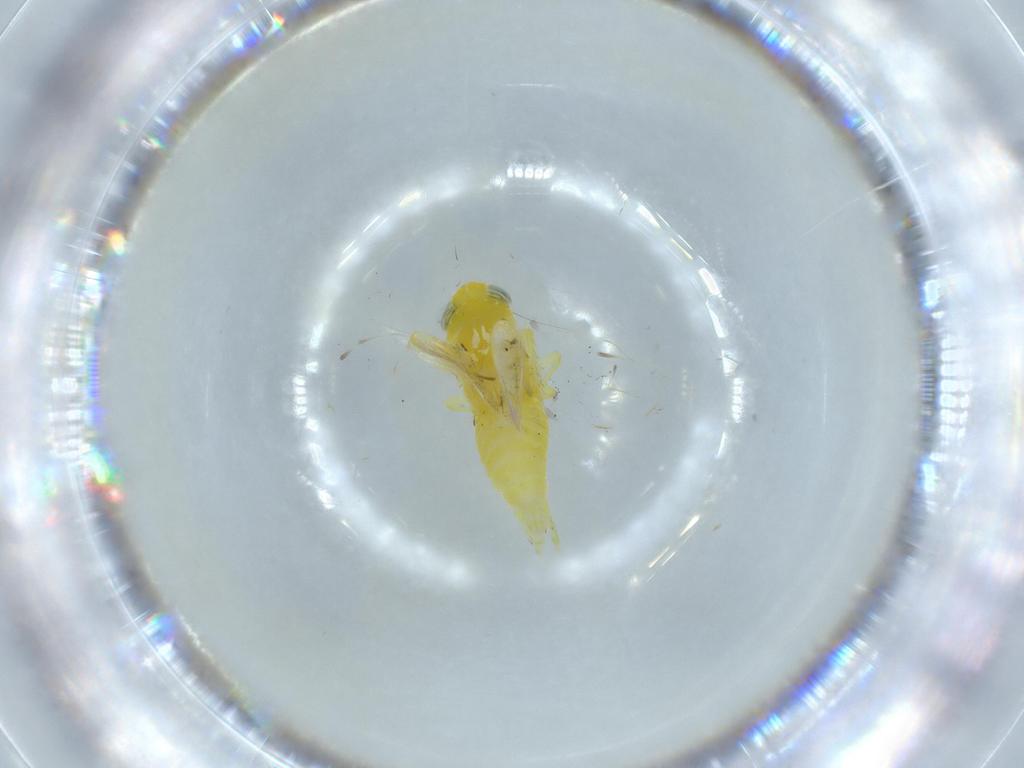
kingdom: Animalia
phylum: Arthropoda
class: Insecta
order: Hemiptera
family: Cicadellidae
